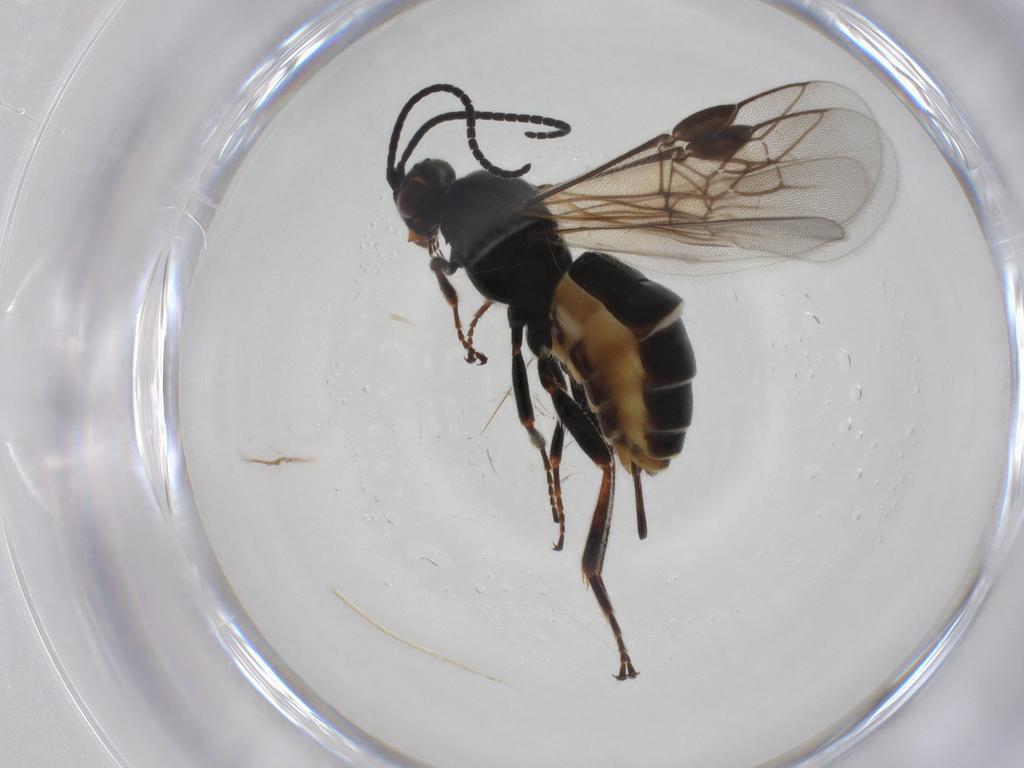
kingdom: Animalia
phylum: Arthropoda
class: Insecta
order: Hymenoptera
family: Braconidae
